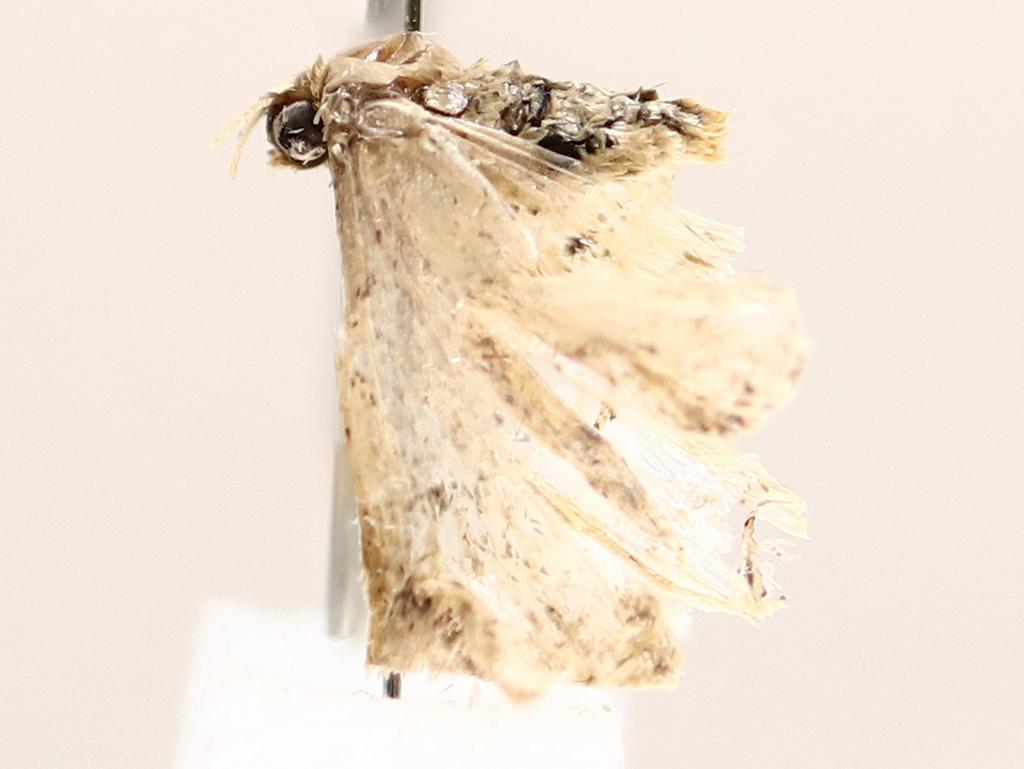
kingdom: Animalia
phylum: Arthropoda
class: Insecta
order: Diptera
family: Psychodidae
